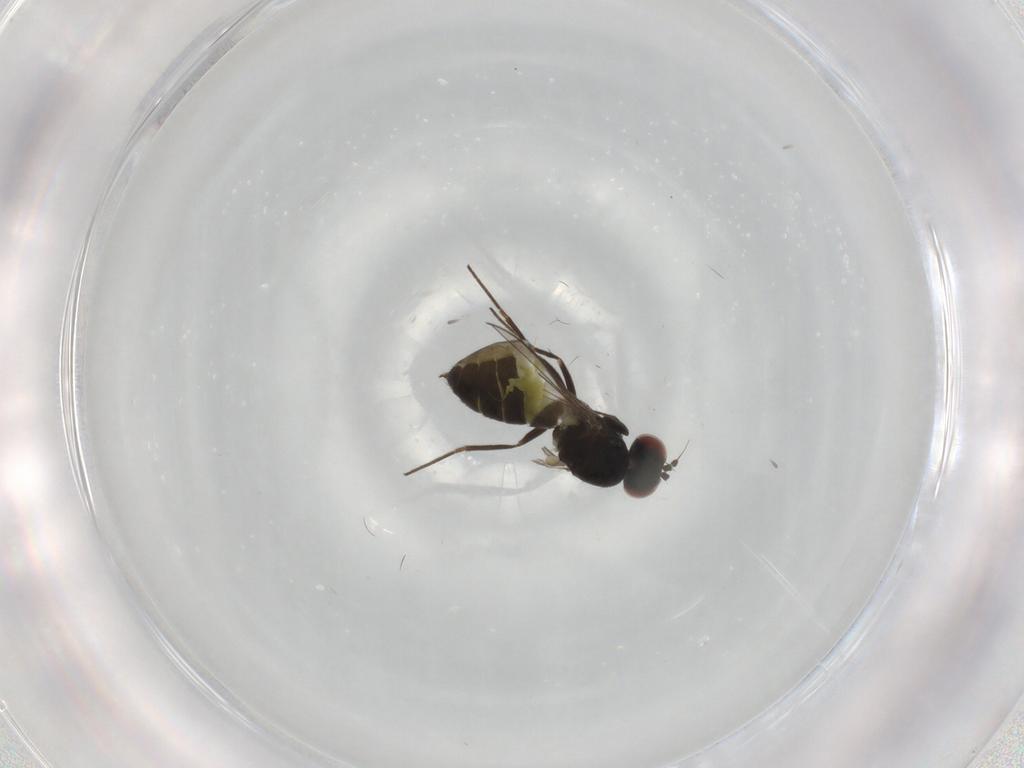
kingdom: Animalia
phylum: Arthropoda
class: Insecta
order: Diptera
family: Dolichopodidae
